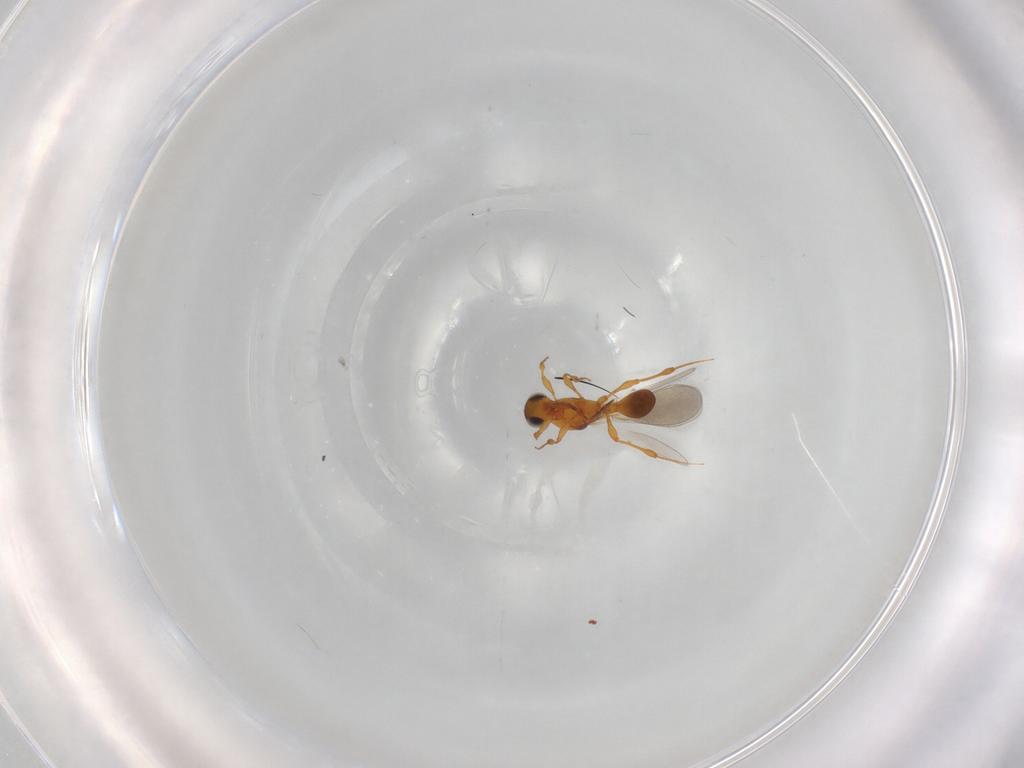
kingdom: Animalia
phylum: Arthropoda
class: Insecta
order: Hymenoptera
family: Platygastridae
